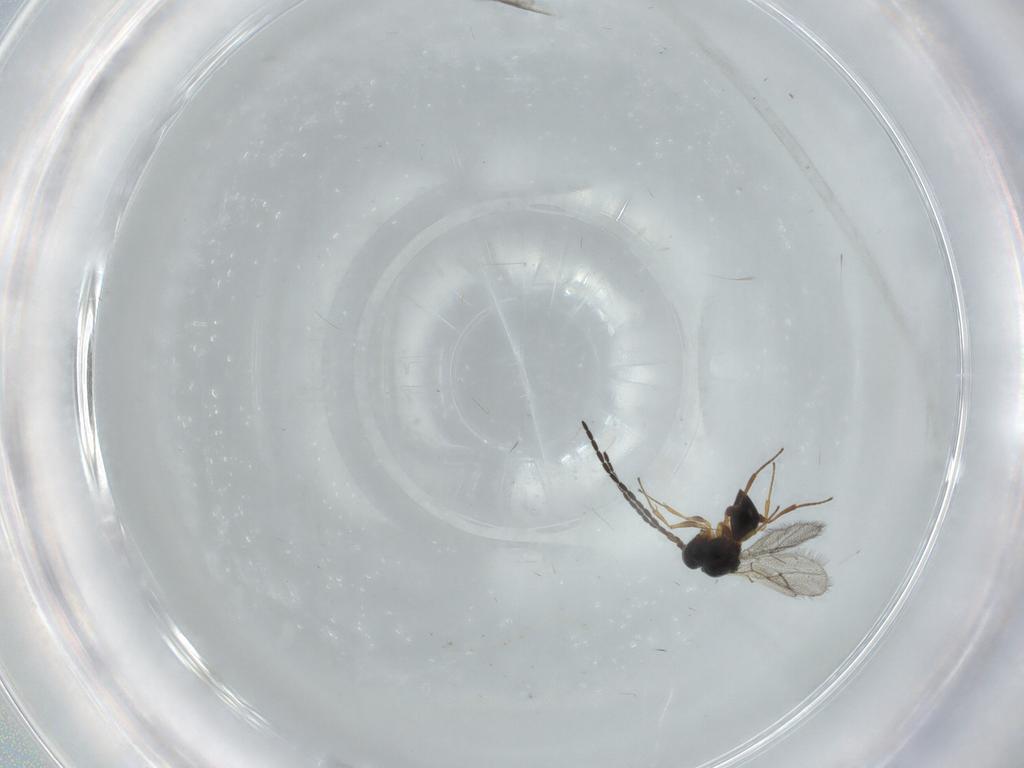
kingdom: Animalia
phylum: Arthropoda
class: Insecta
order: Hymenoptera
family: Figitidae
